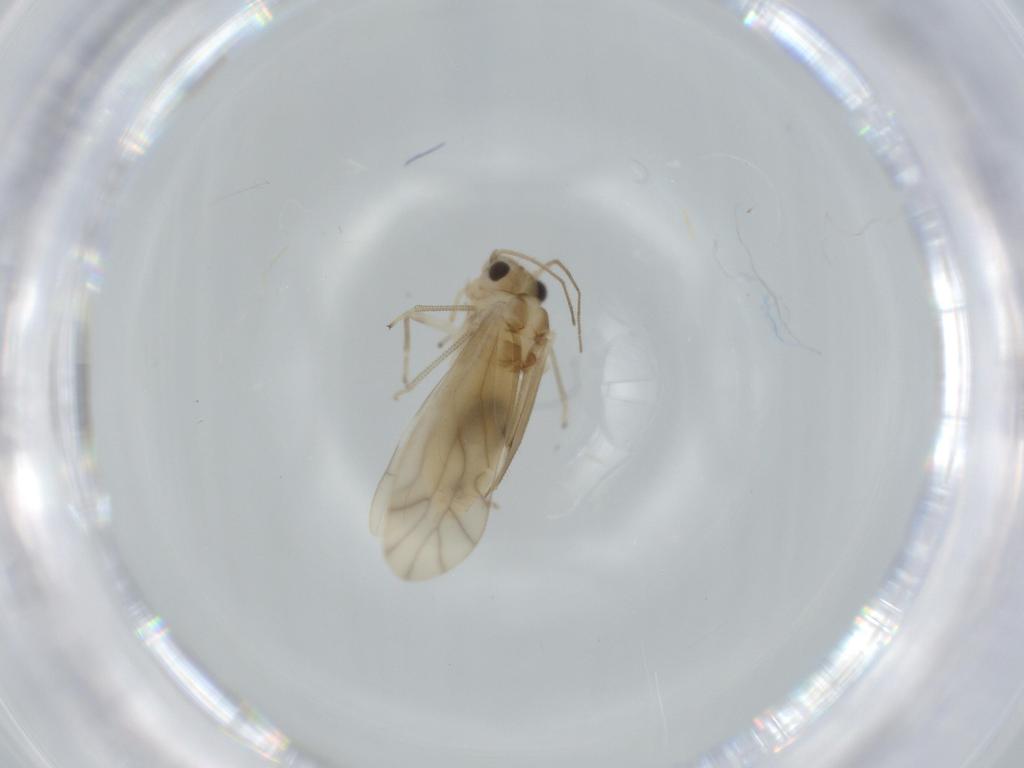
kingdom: Animalia
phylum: Arthropoda
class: Insecta
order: Psocodea
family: Caeciliusidae
